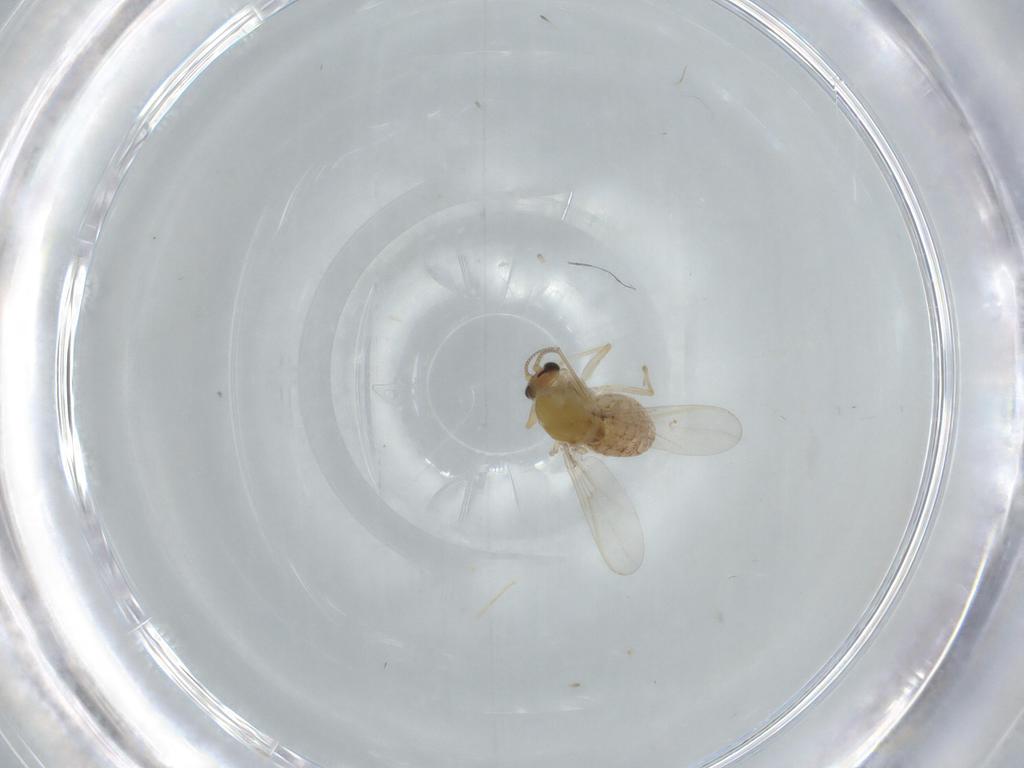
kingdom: Animalia
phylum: Arthropoda
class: Insecta
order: Diptera
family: Chironomidae
